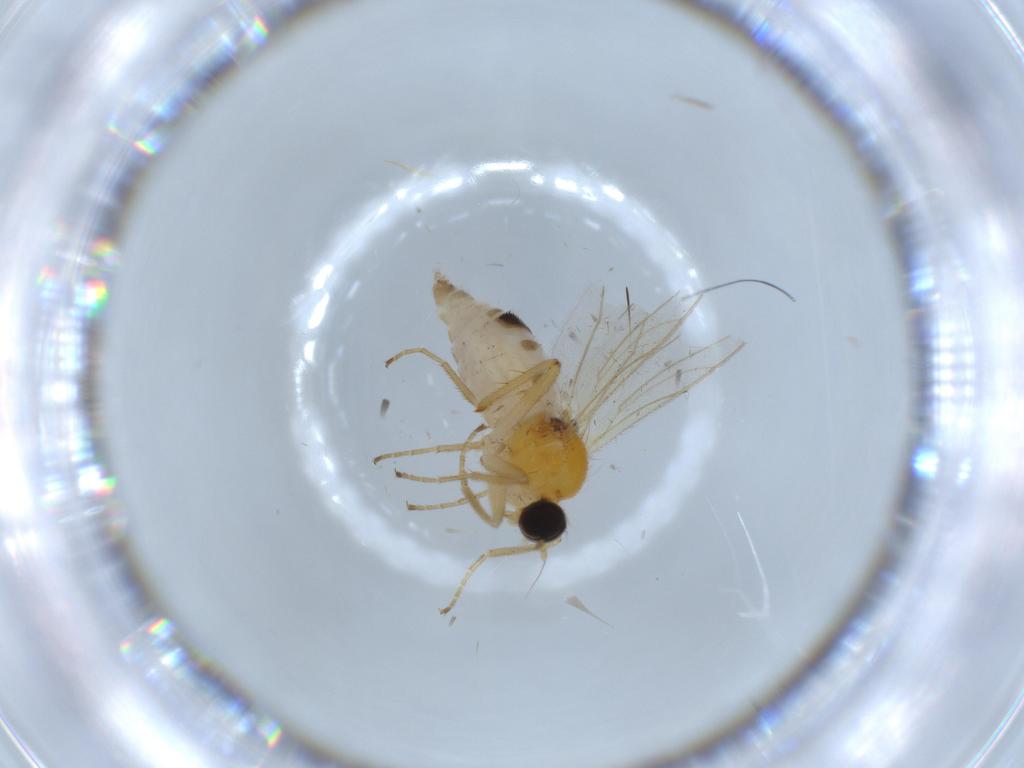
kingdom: Animalia
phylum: Arthropoda
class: Insecta
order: Diptera
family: Hybotidae
